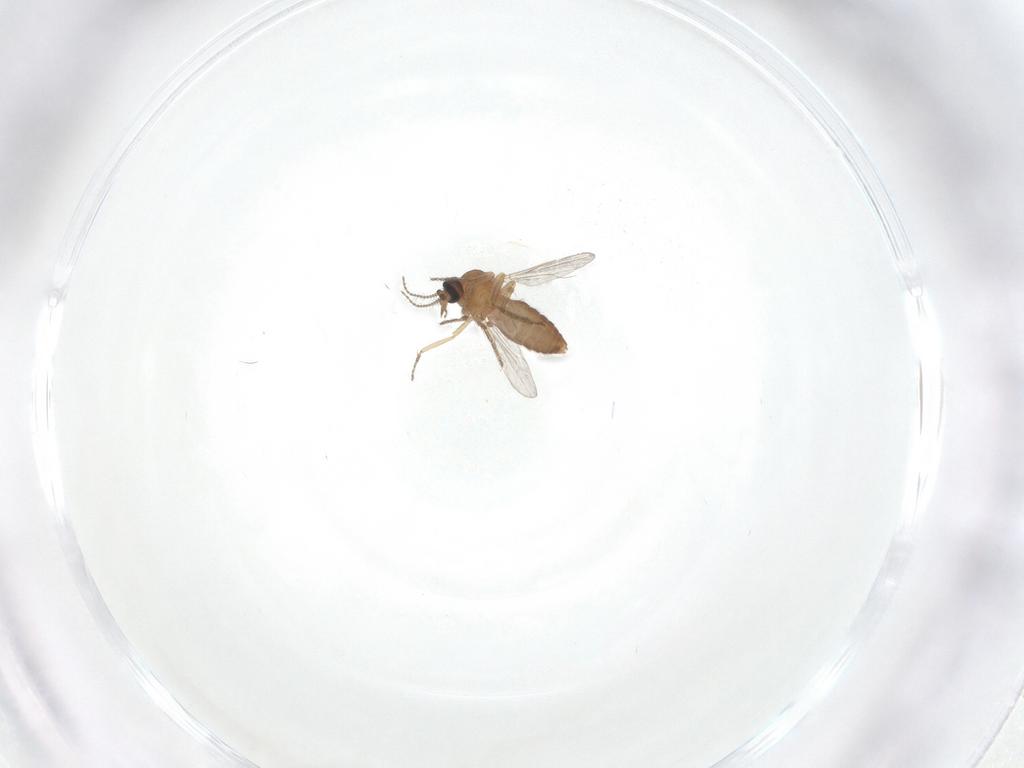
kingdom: Animalia
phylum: Arthropoda
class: Insecta
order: Diptera
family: Ceratopogonidae
